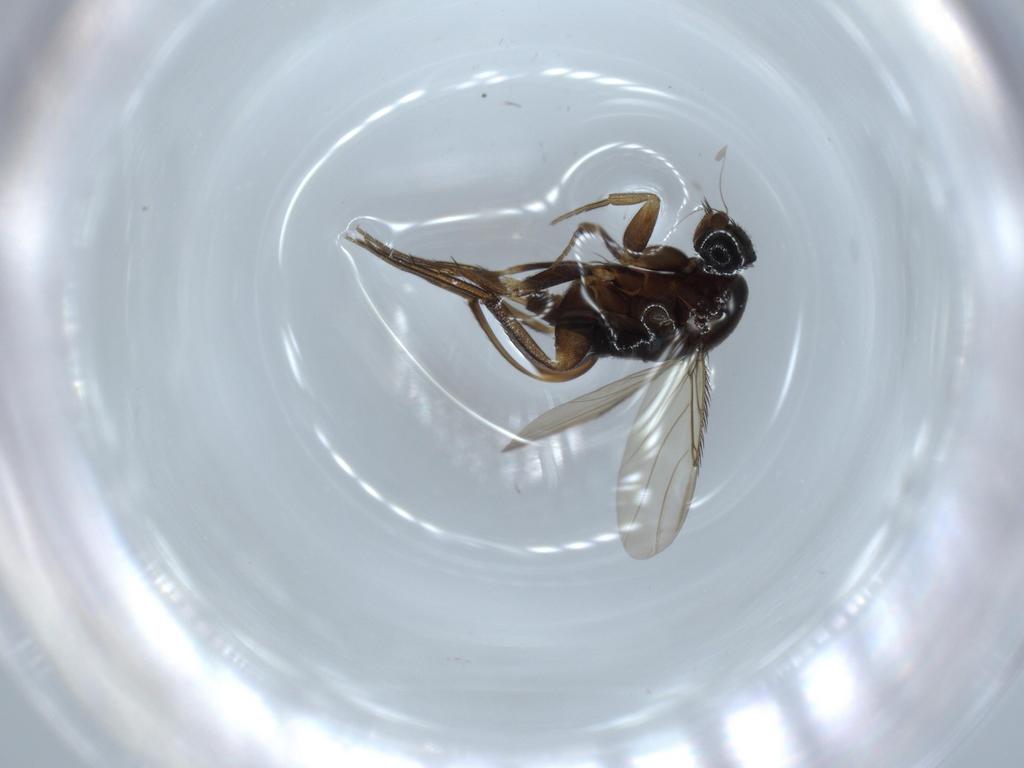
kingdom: Animalia
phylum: Arthropoda
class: Insecta
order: Diptera
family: Phoridae
